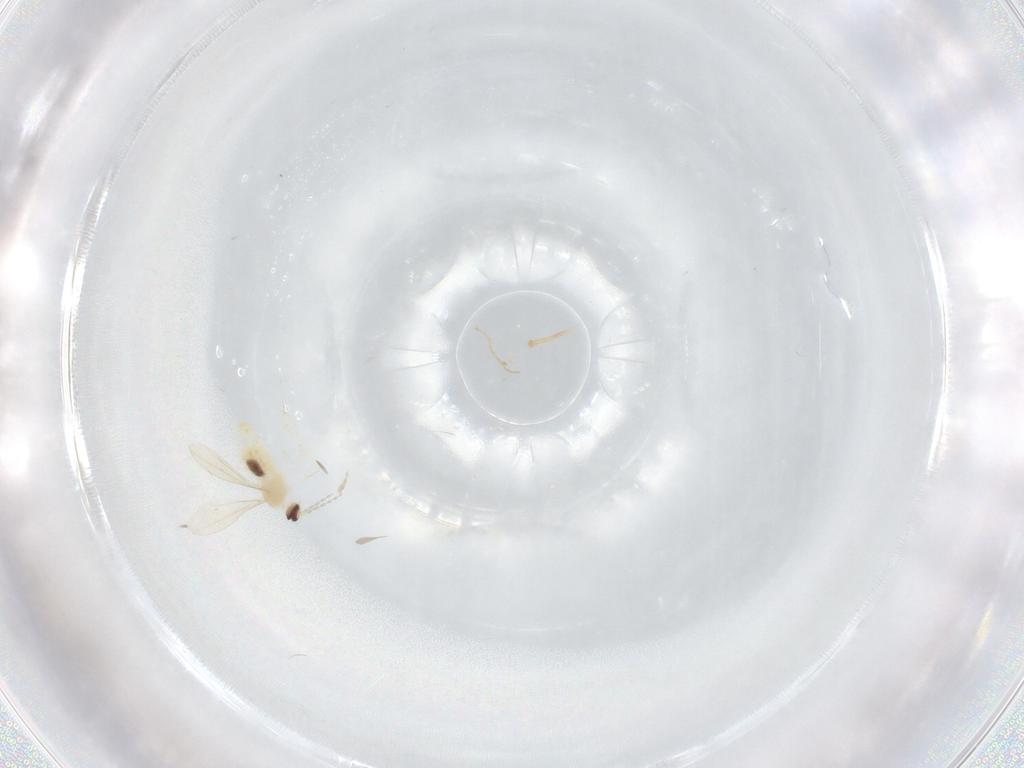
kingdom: Animalia
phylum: Arthropoda
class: Insecta
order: Diptera
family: Cecidomyiidae
